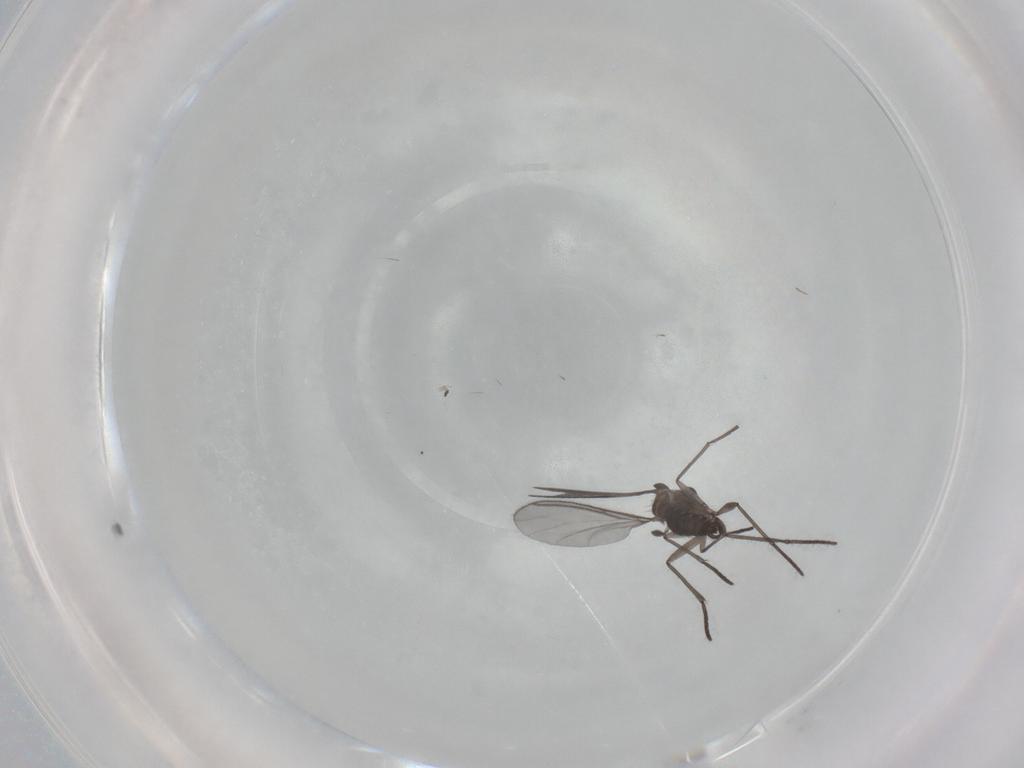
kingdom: Animalia
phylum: Arthropoda
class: Insecta
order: Diptera
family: Sciaridae
